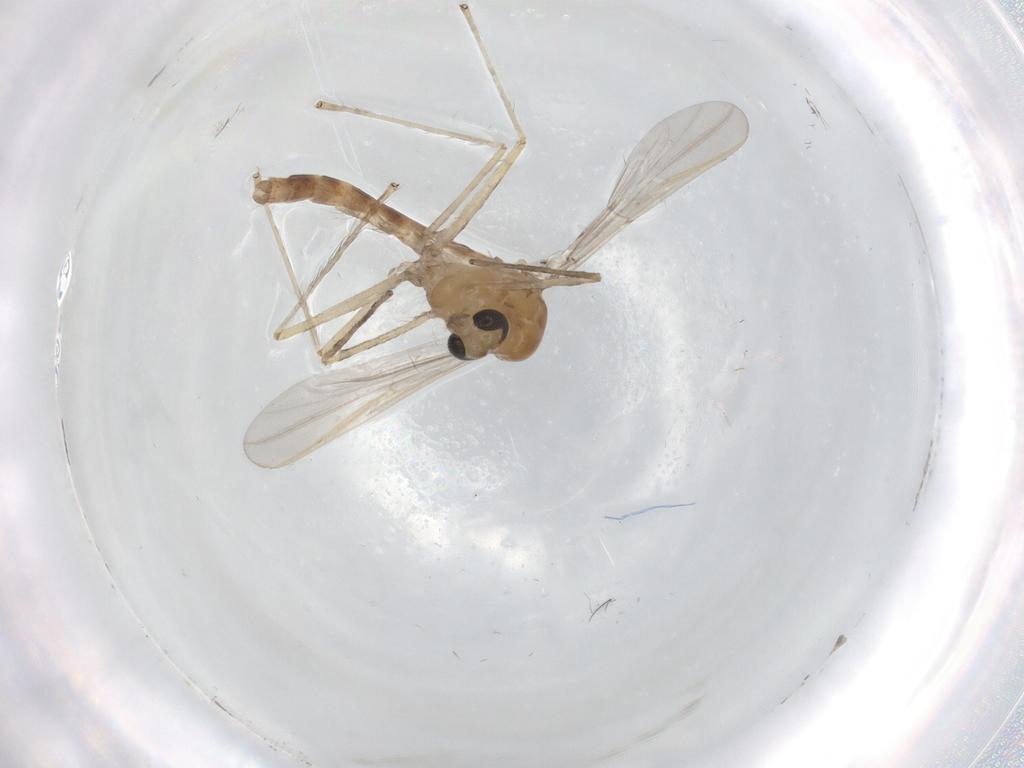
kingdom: Animalia
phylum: Arthropoda
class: Insecta
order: Diptera
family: Chironomidae
